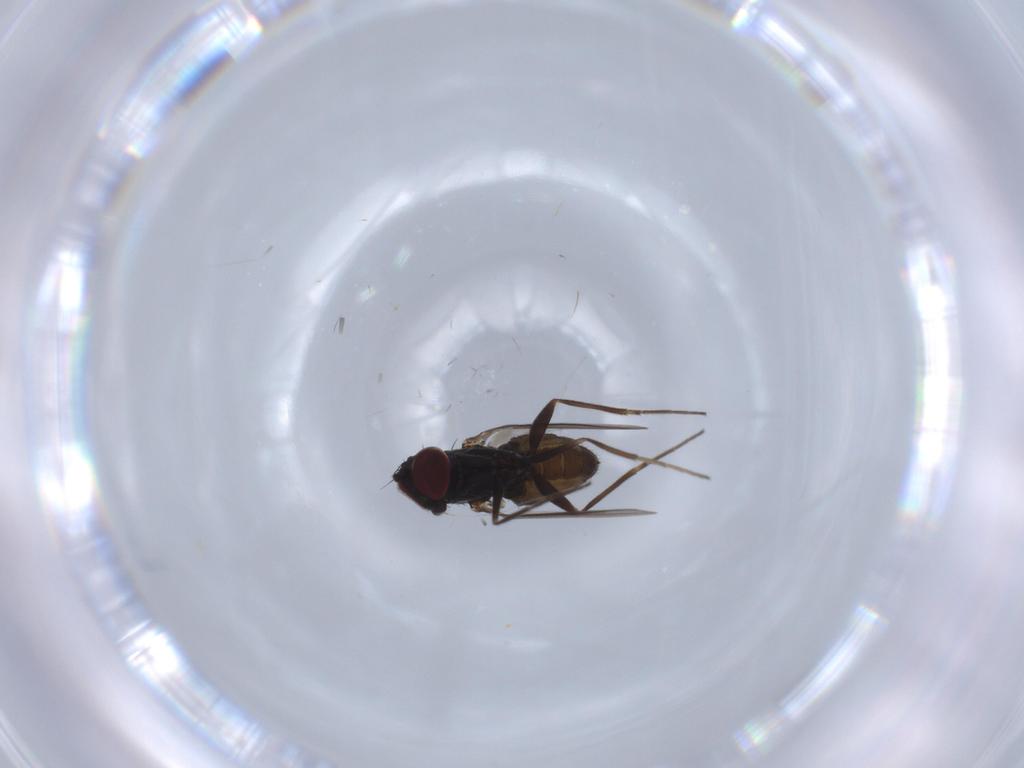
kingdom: Animalia
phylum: Arthropoda
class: Insecta
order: Diptera
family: Dolichopodidae
